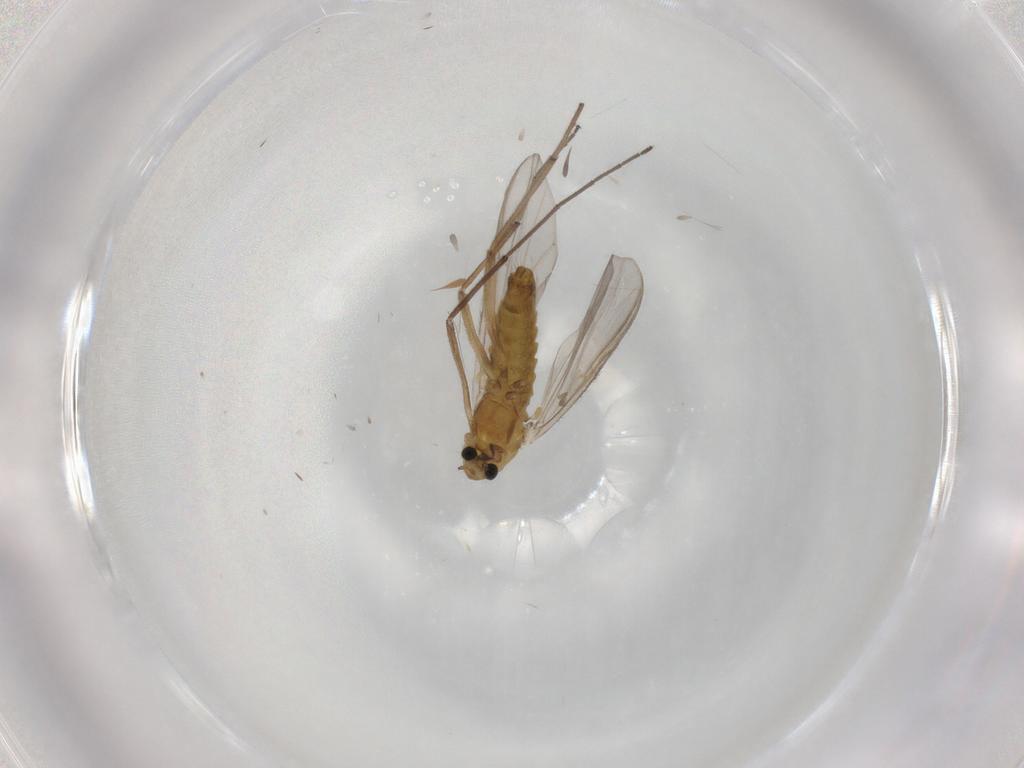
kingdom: Animalia
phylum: Arthropoda
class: Insecta
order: Diptera
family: Chironomidae
